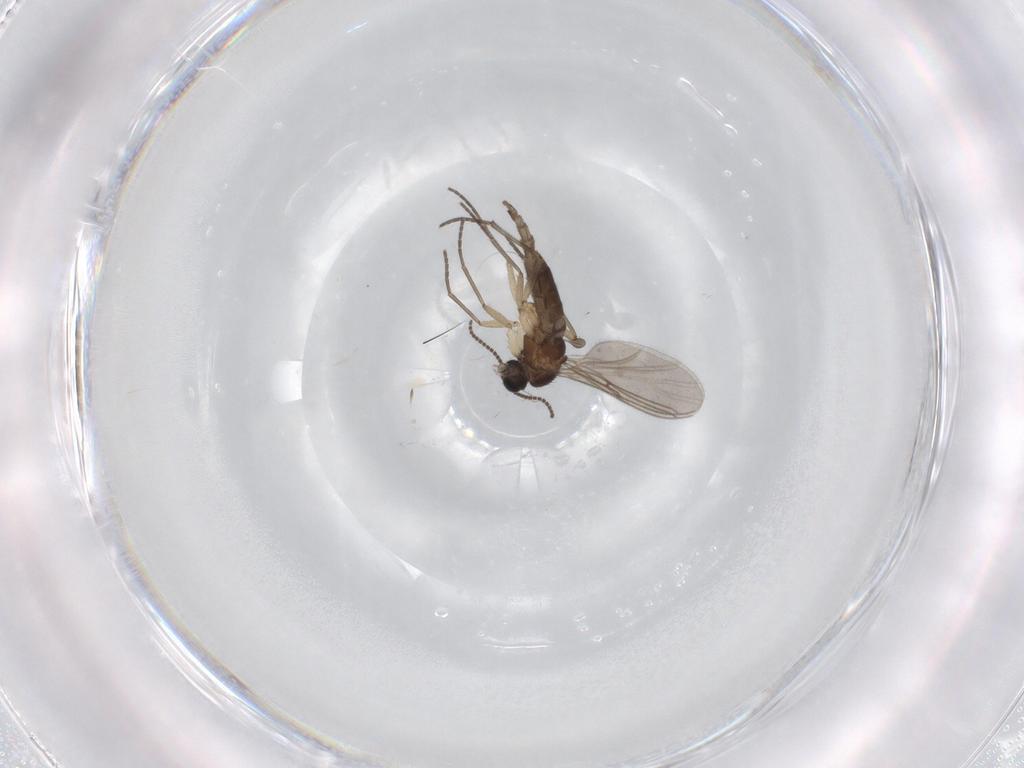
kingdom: Animalia
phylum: Arthropoda
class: Insecta
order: Diptera
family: Sciaridae
